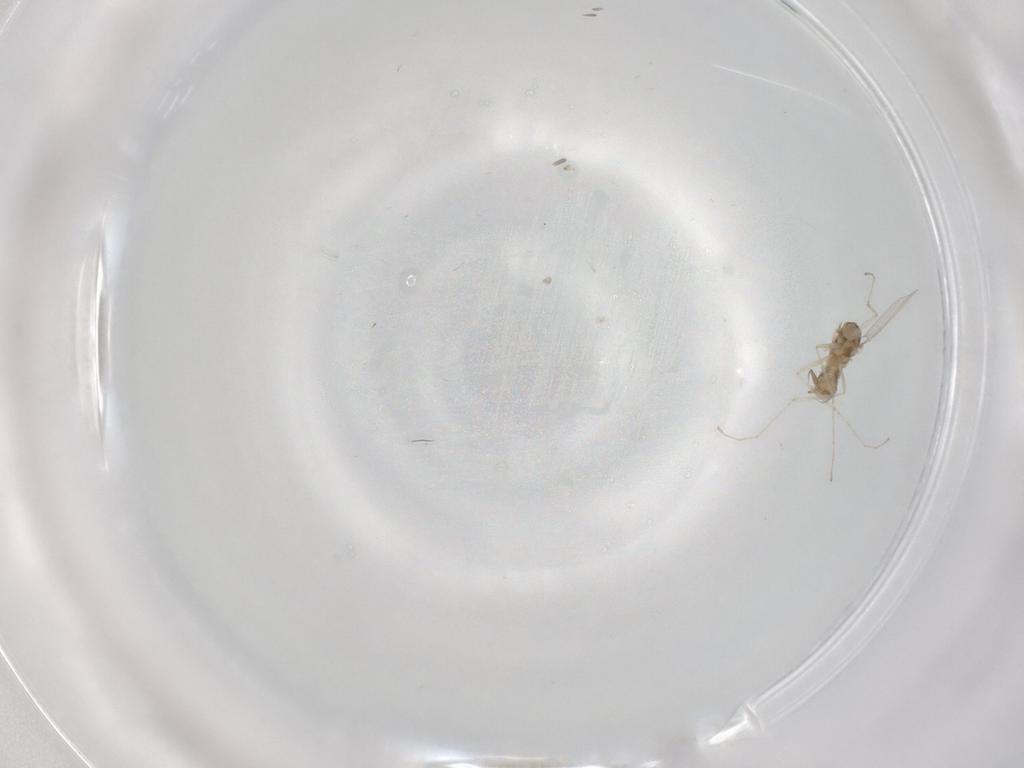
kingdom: Animalia
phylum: Arthropoda
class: Insecta
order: Diptera
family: Cecidomyiidae
